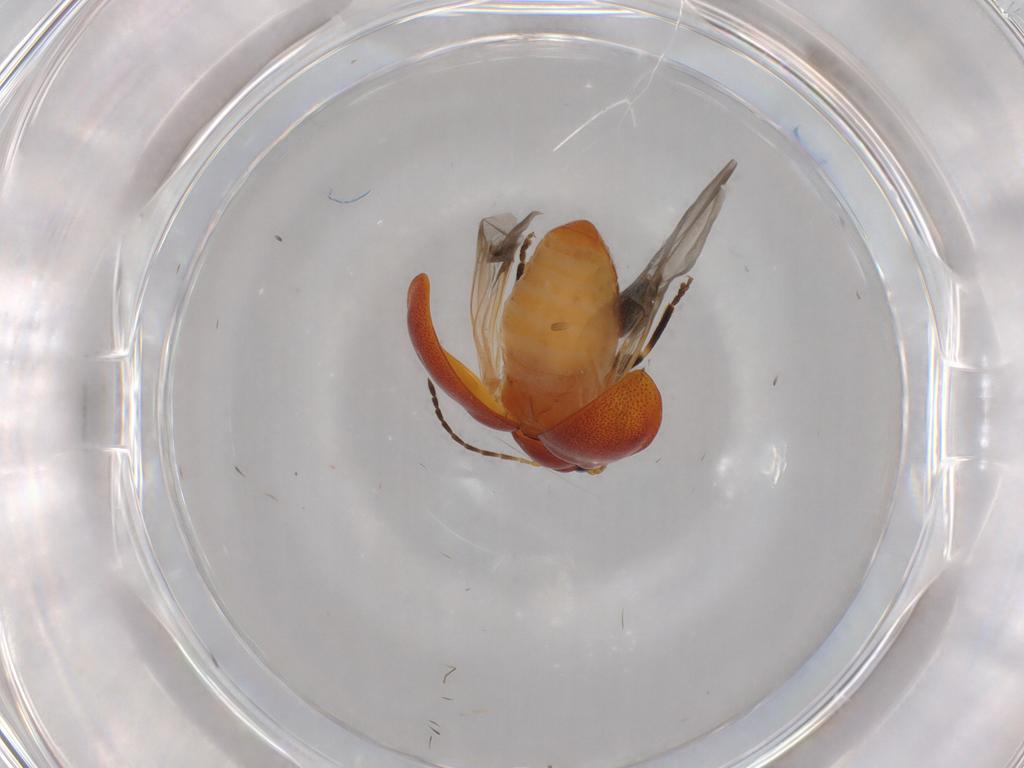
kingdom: Animalia
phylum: Arthropoda
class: Insecta
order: Coleoptera
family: Chrysomelidae
